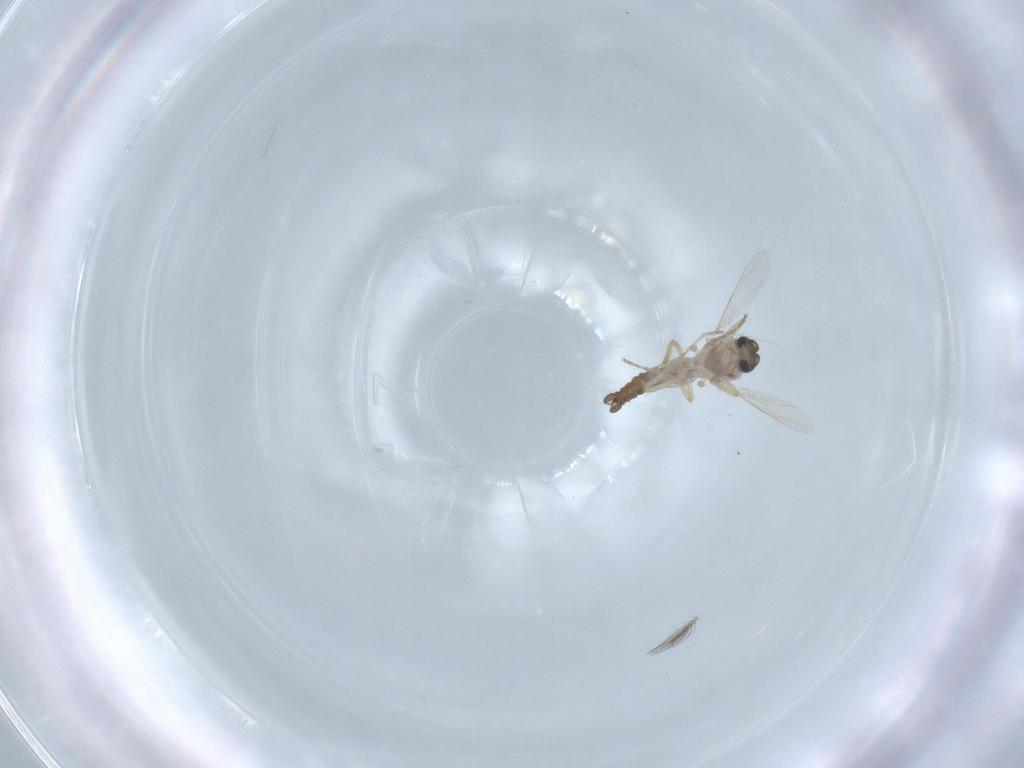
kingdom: Animalia
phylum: Arthropoda
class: Insecta
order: Diptera
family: Ceratopogonidae
